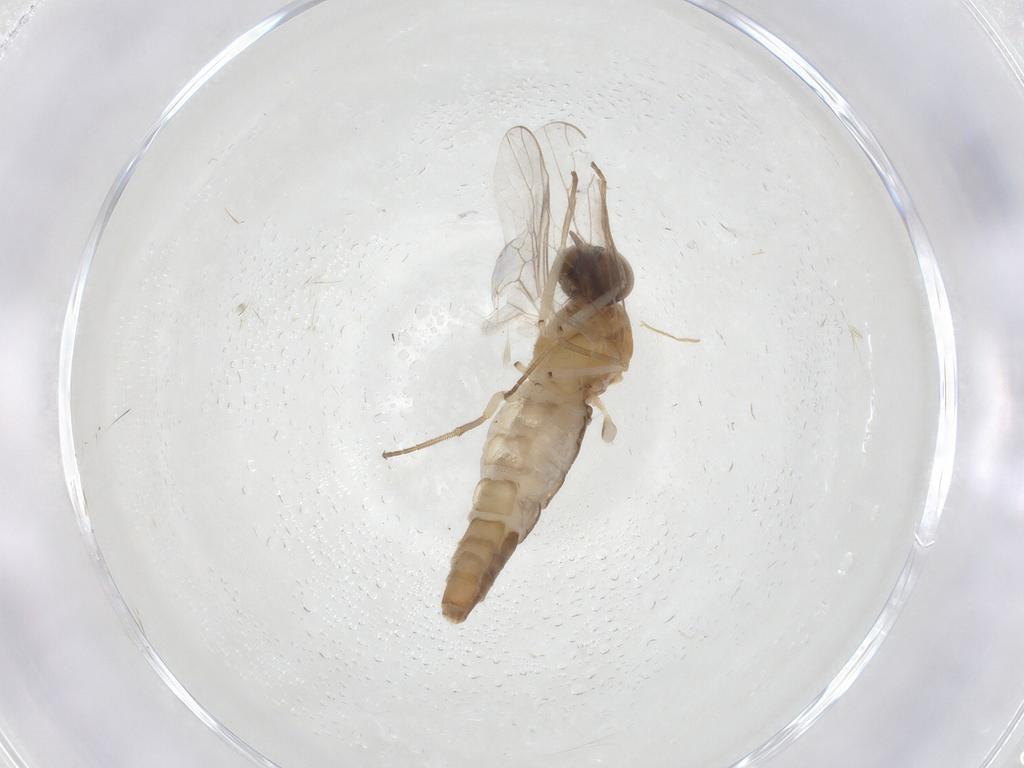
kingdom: Animalia
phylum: Arthropoda
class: Insecta
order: Diptera
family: Scenopinidae
